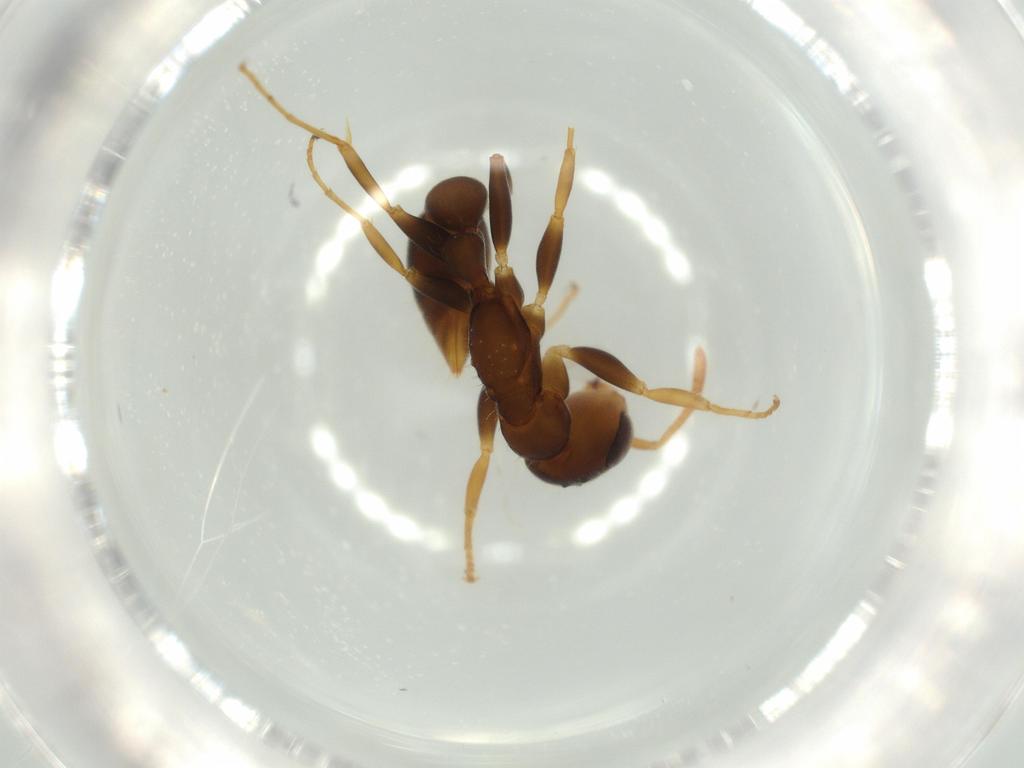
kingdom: Animalia
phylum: Arthropoda
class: Insecta
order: Hymenoptera
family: Formicidae
